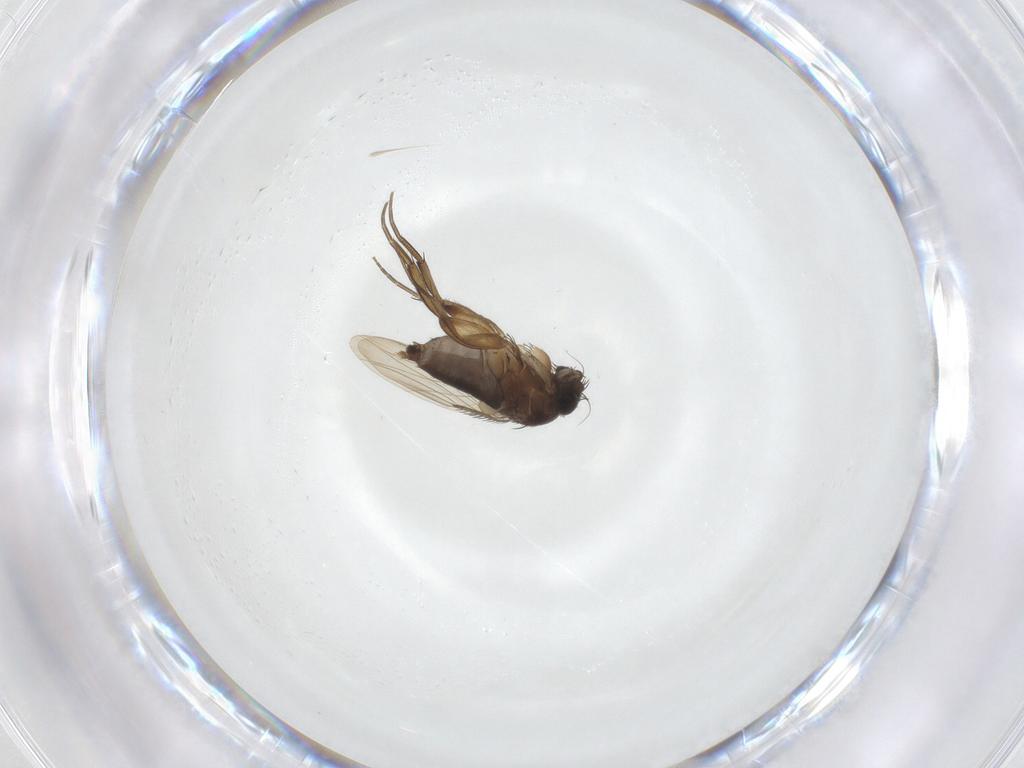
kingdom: Animalia
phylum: Arthropoda
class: Insecta
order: Diptera
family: Phoridae
